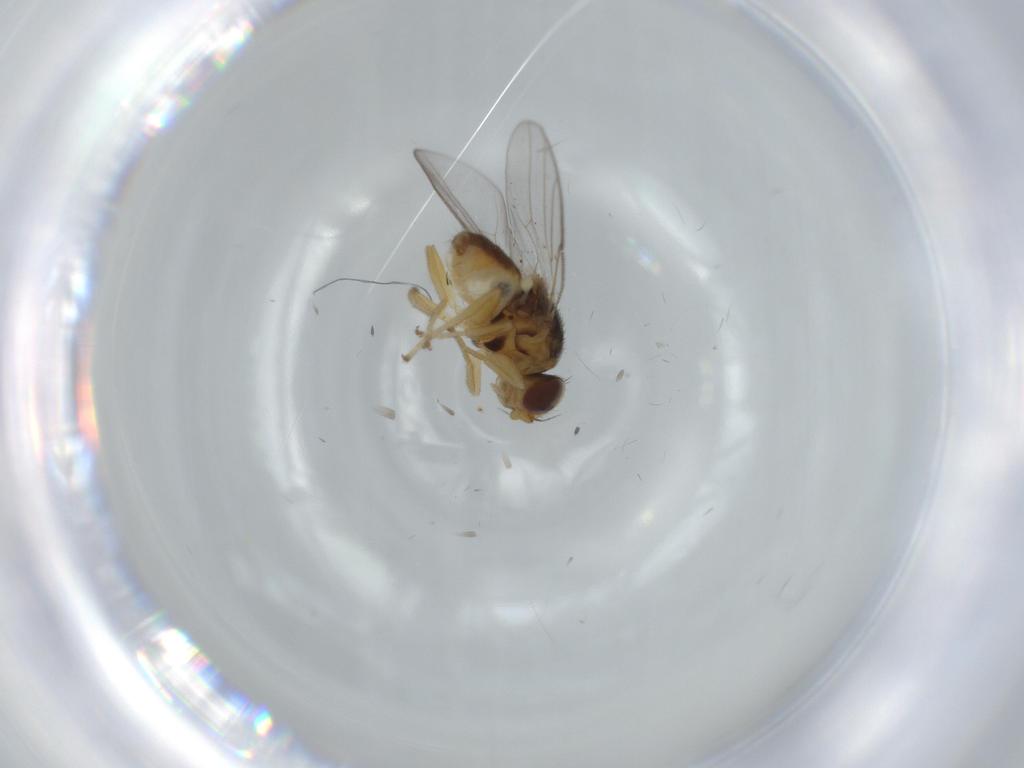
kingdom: Animalia
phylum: Arthropoda
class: Insecta
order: Diptera
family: Chloropidae
